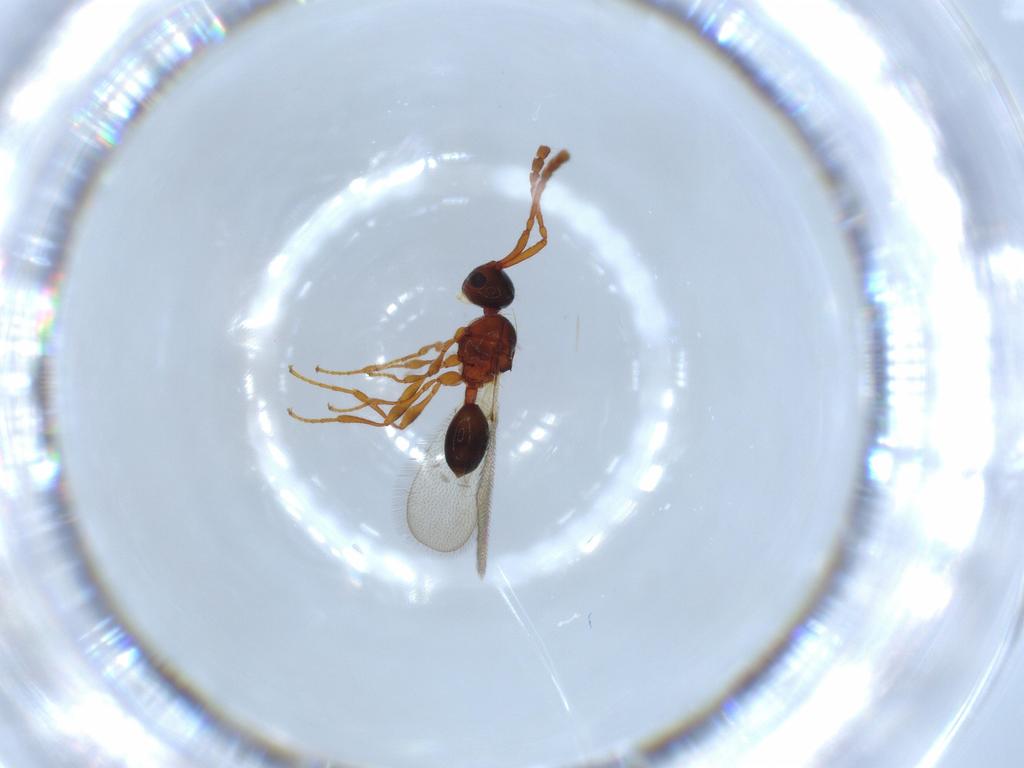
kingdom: Animalia
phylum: Arthropoda
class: Insecta
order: Hymenoptera
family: Diapriidae
